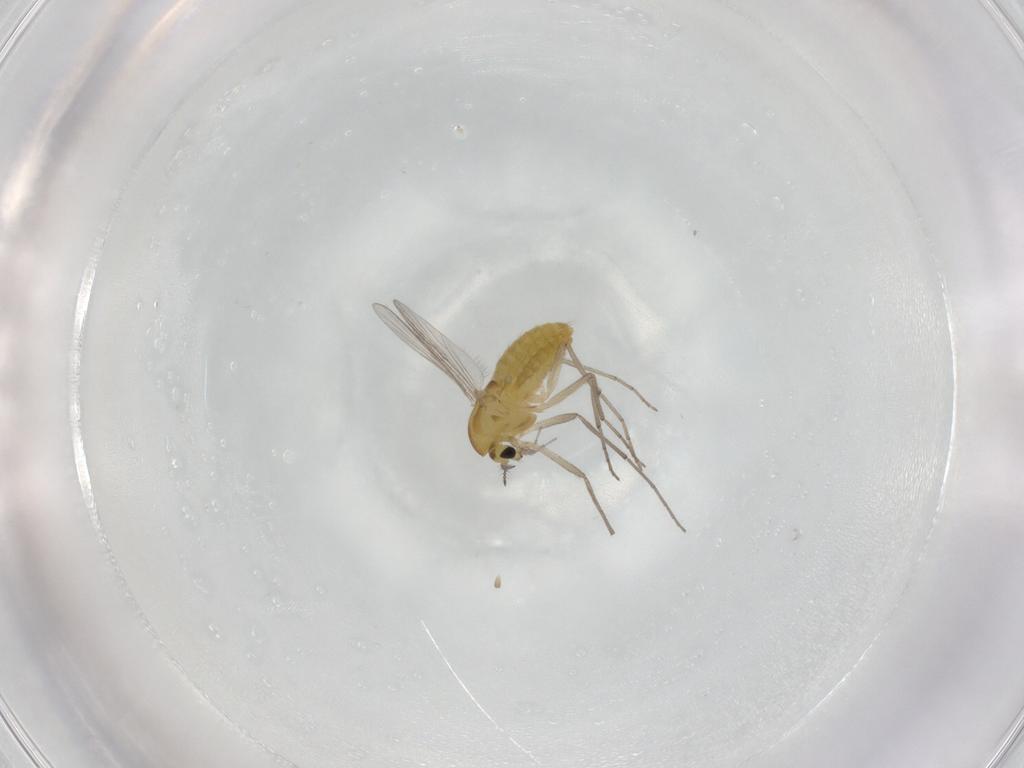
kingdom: Animalia
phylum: Arthropoda
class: Insecta
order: Diptera
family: Chironomidae
